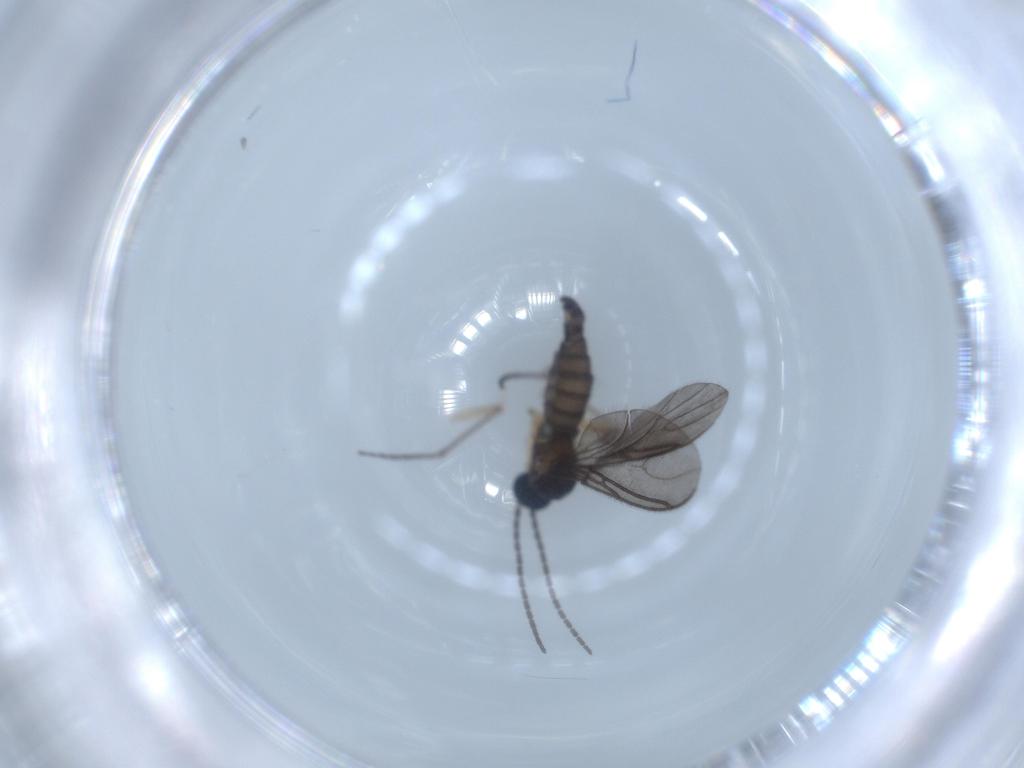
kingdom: Animalia
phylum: Arthropoda
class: Insecta
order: Diptera
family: Sciaridae
